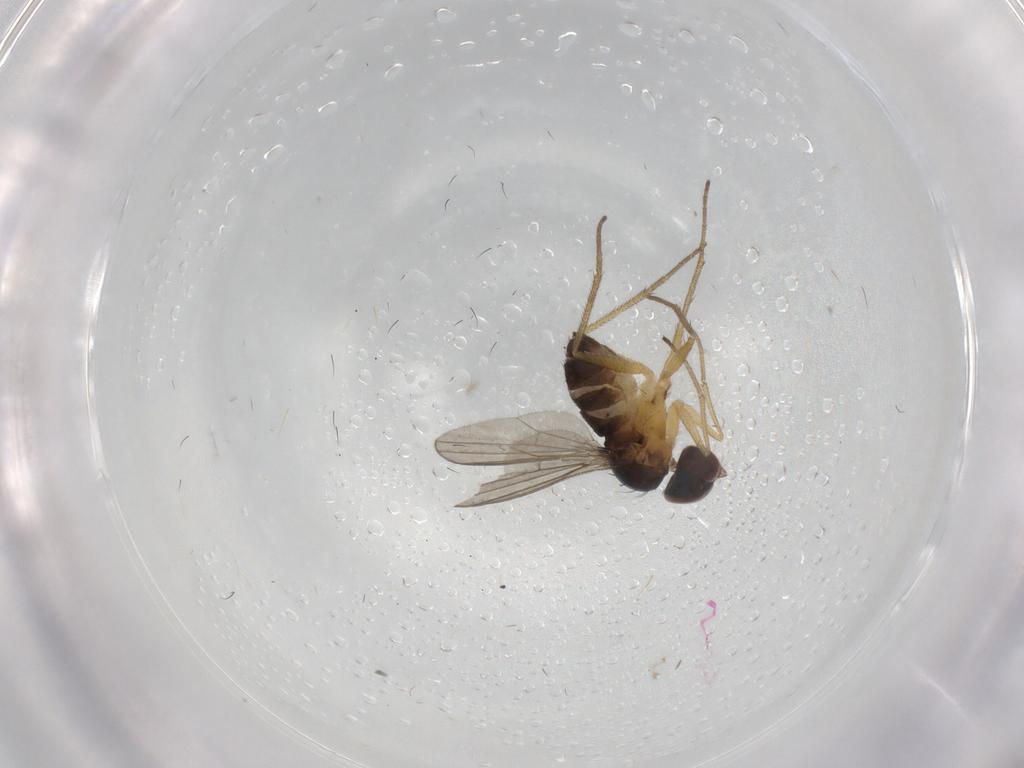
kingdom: Animalia
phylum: Arthropoda
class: Insecta
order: Diptera
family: Dolichopodidae
